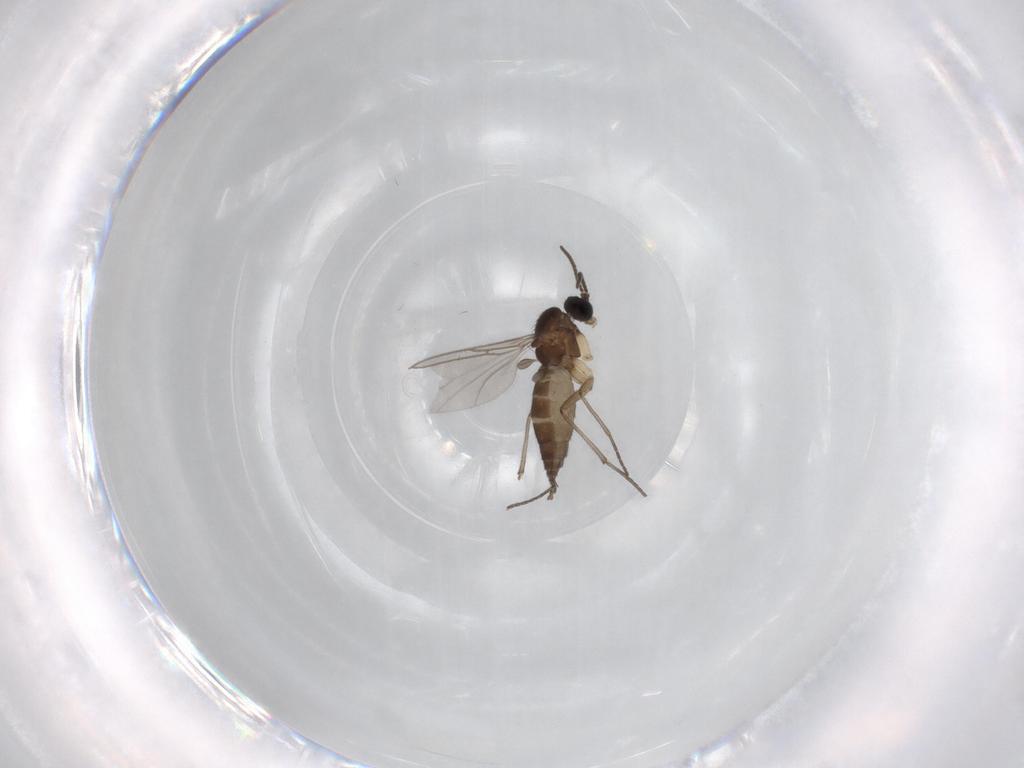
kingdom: Animalia
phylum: Arthropoda
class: Insecta
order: Diptera
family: Sciaridae
